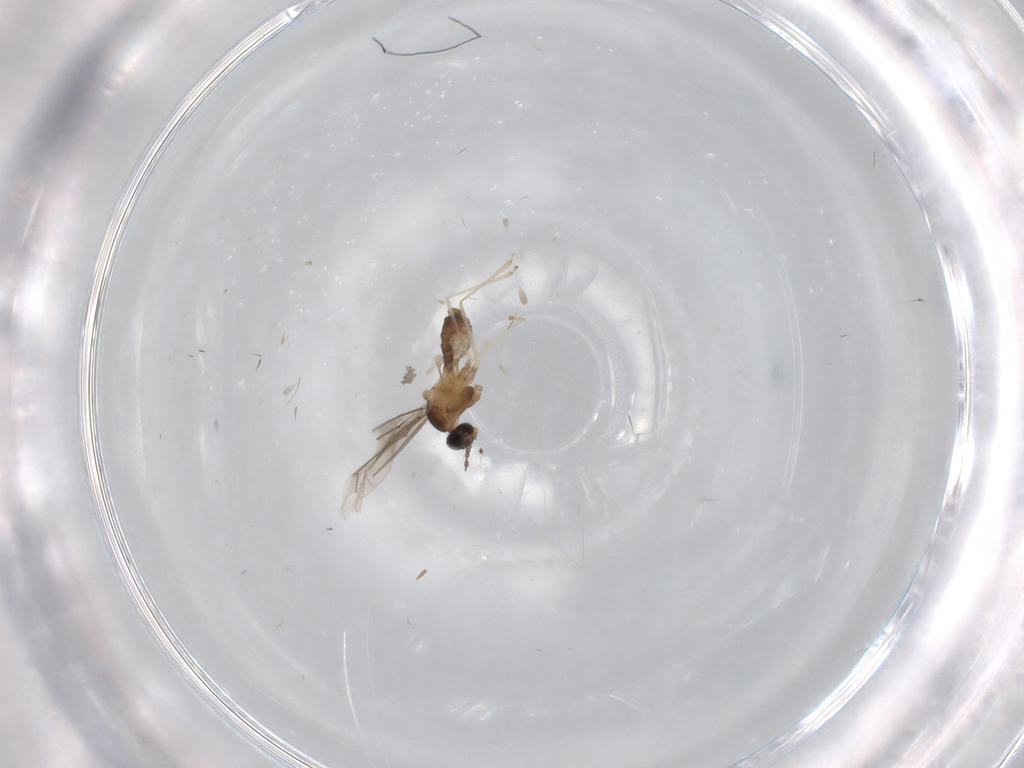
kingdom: Animalia
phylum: Arthropoda
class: Insecta
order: Diptera
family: Cecidomyiidae
